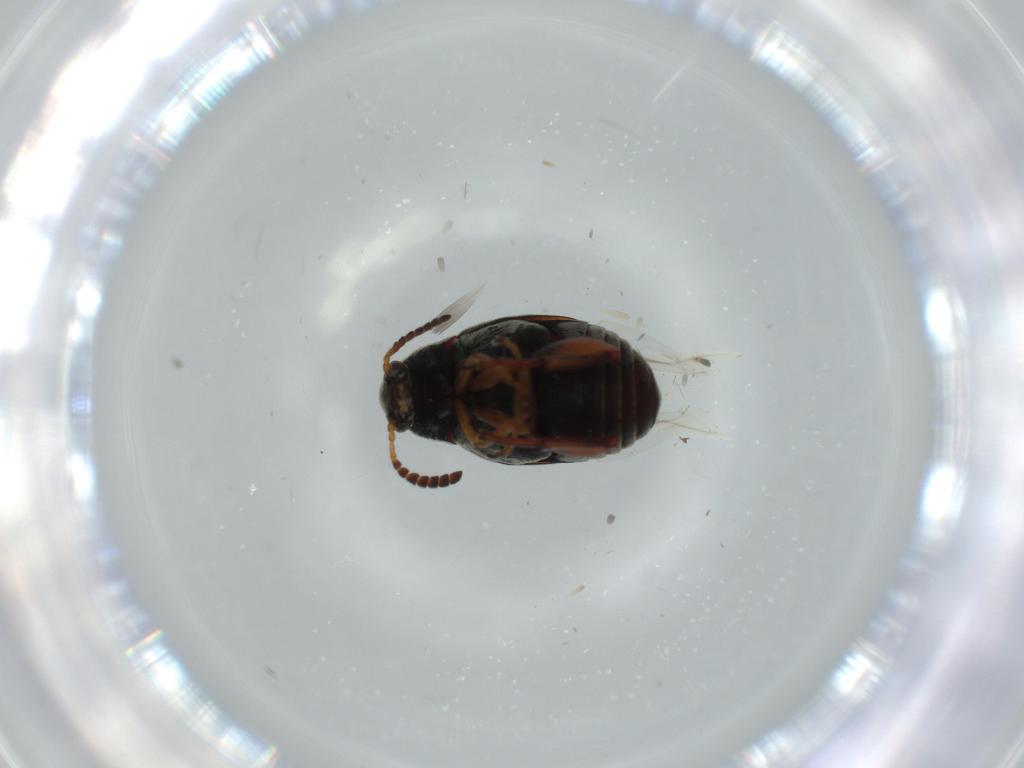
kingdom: Animalia
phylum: Arthropoda
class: Insecta
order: Coleoptera
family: Chrysomelidae
